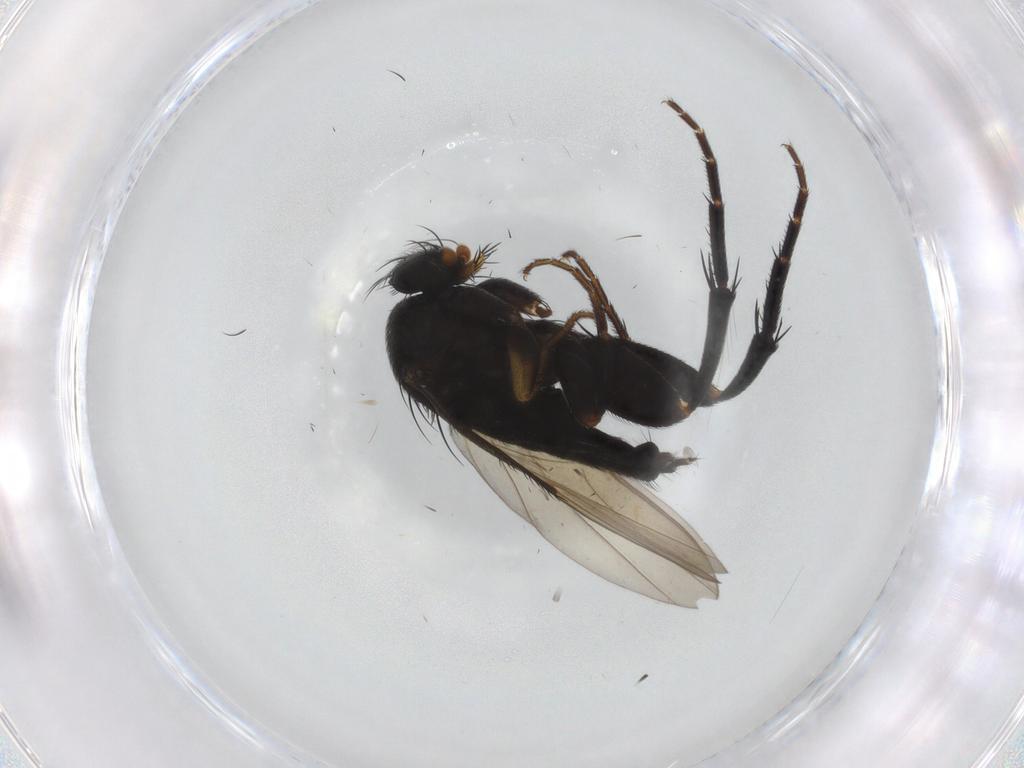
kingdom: Animalia
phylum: Arthropoda
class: Insecta
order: Diptera
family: Phoridae
